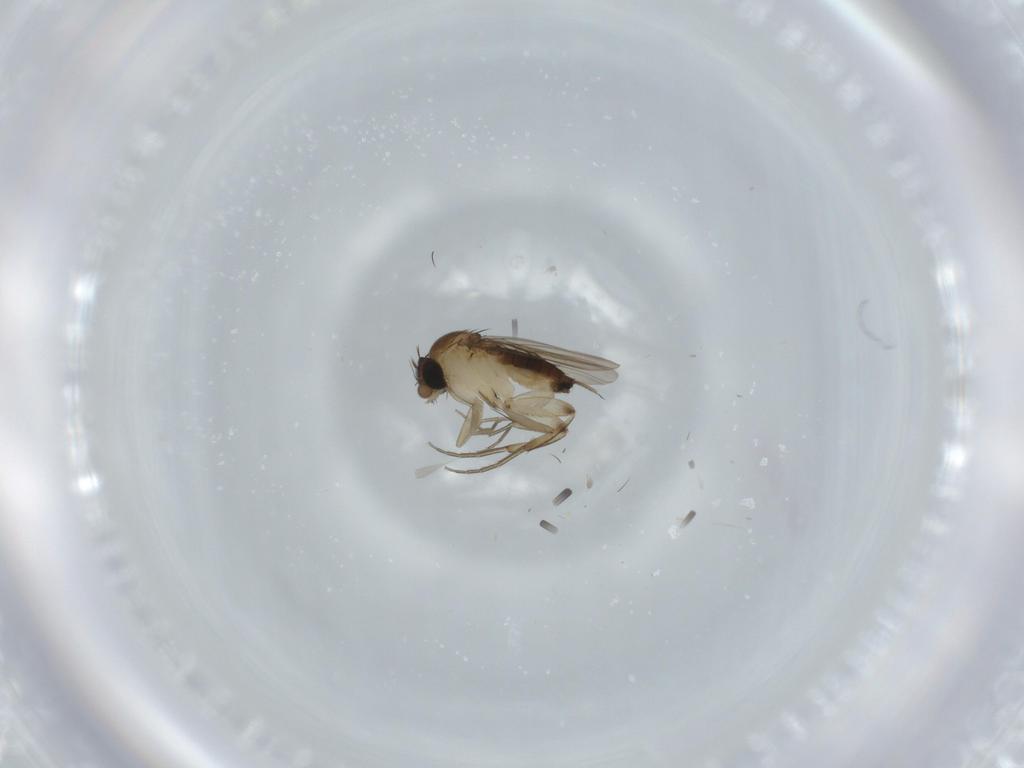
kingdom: Animalia
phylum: Arthropoda
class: Insecta
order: Diptera
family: Phoridae
